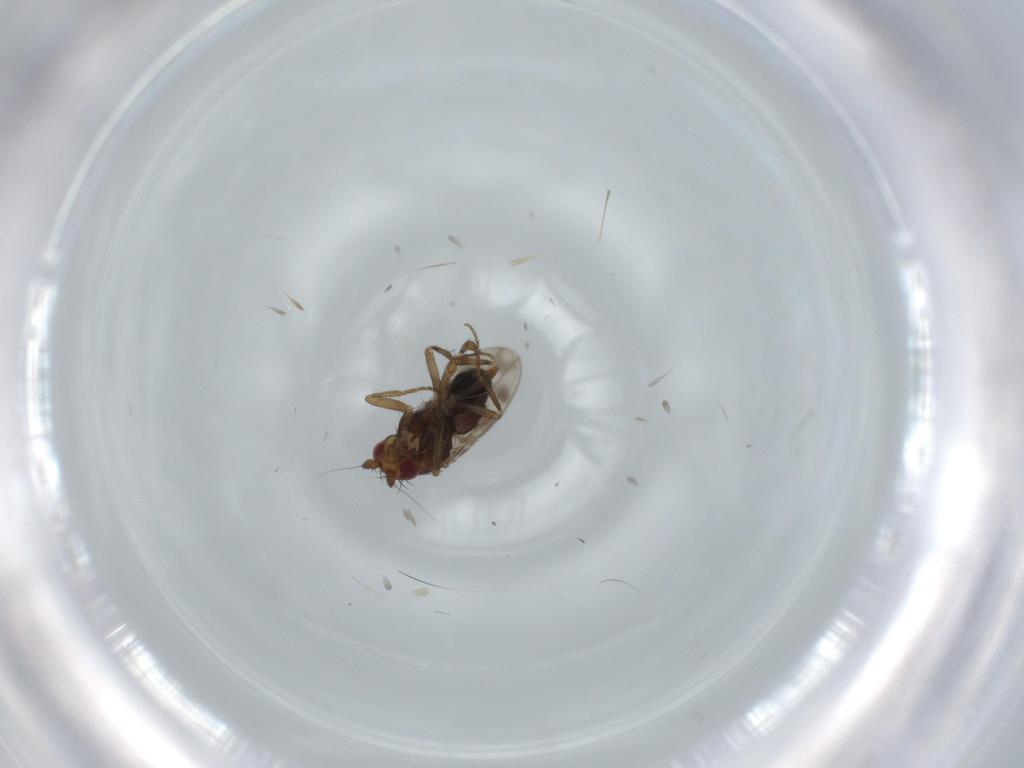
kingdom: Animalia
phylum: Arthropoda
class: Insecta
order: Diptera
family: Sphaeroceridae
